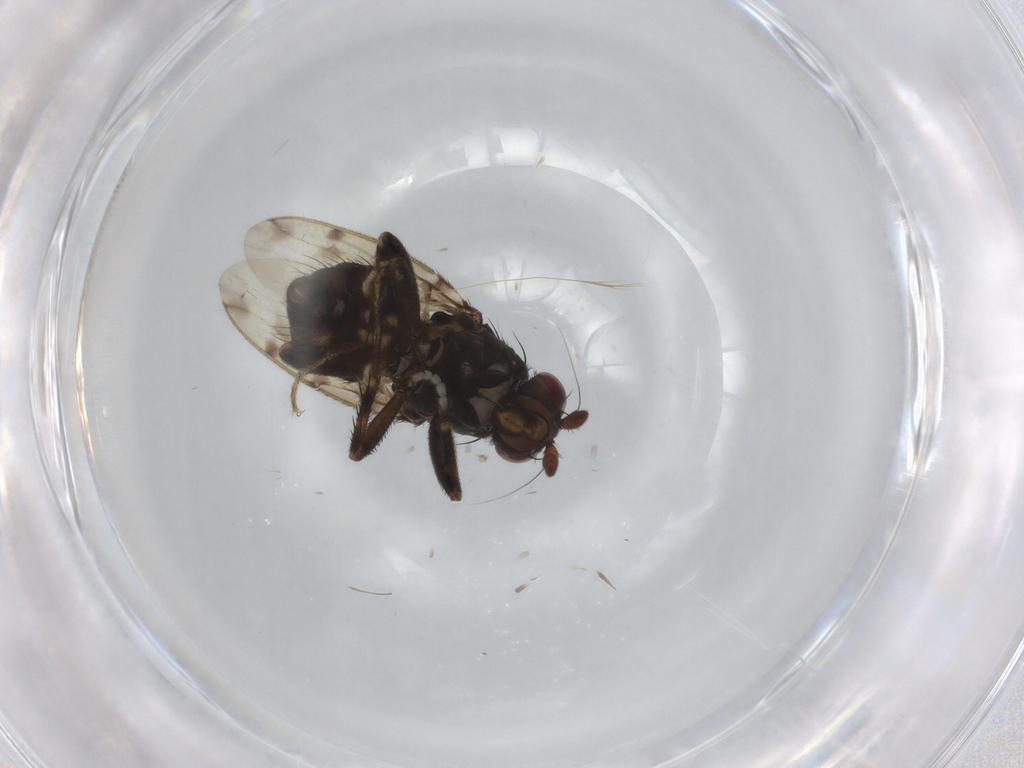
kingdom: Animalia
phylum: Arthropoda
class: Insecta
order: Diptera
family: Sphaeroceridae
